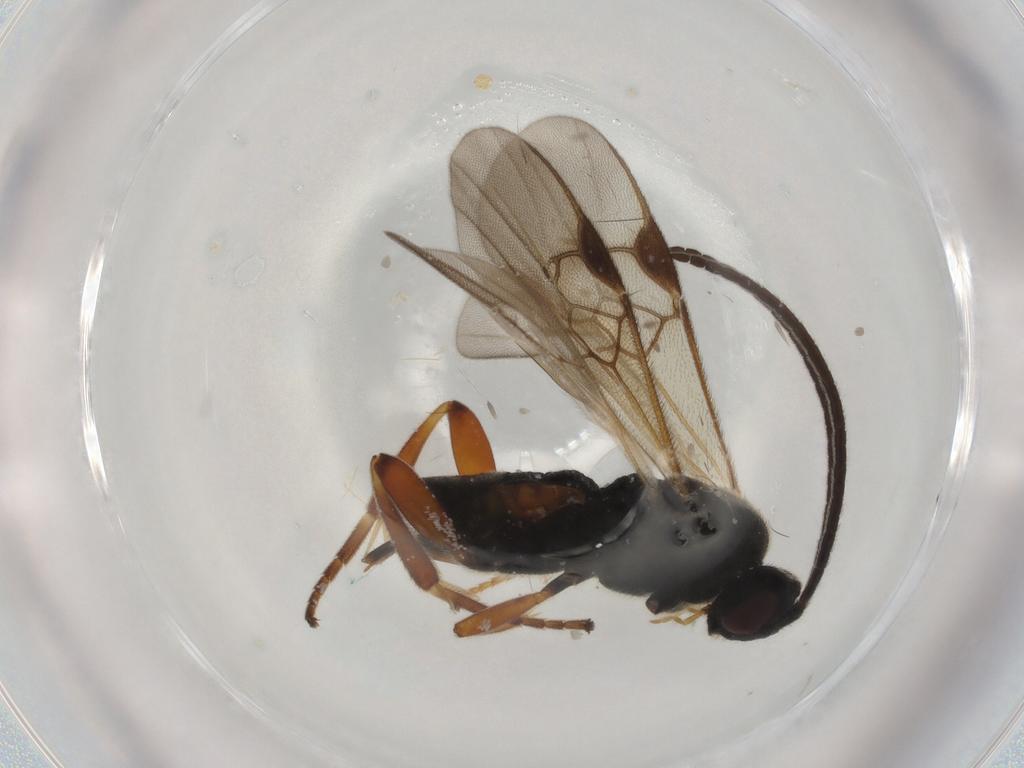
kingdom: Animalia
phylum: Arthropoda
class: Insecta
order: Hymenoptera
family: Braconidae
